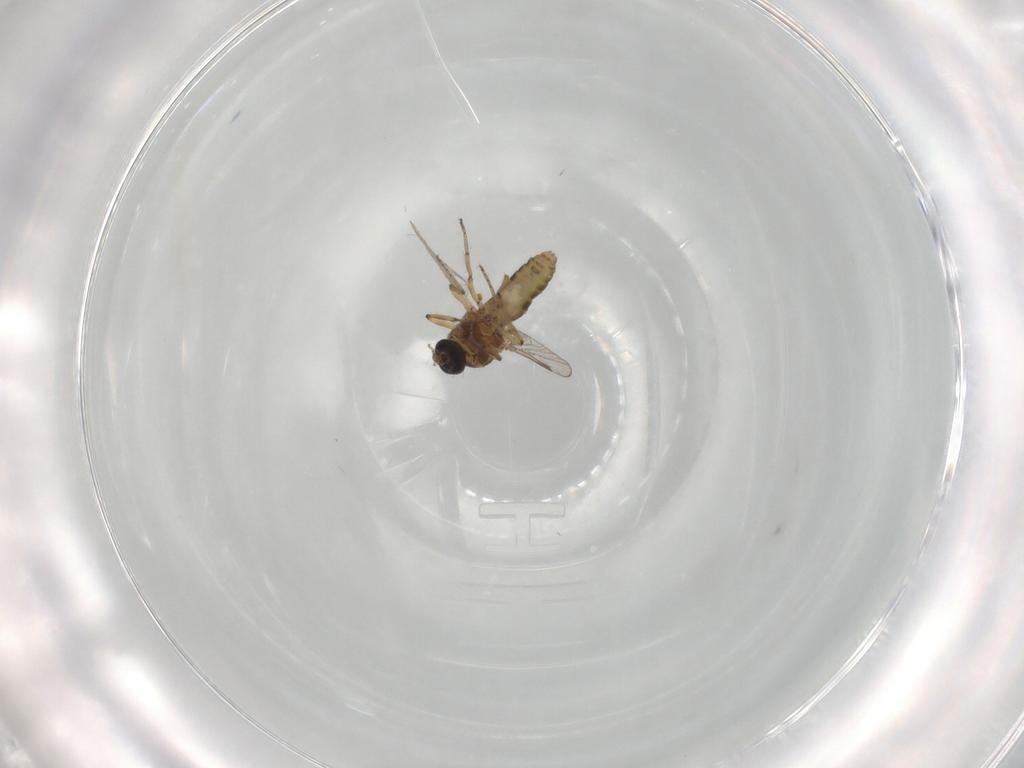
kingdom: Animalia
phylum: Arthropoda
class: Insecta
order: Diptera
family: Ceratopogonidae
